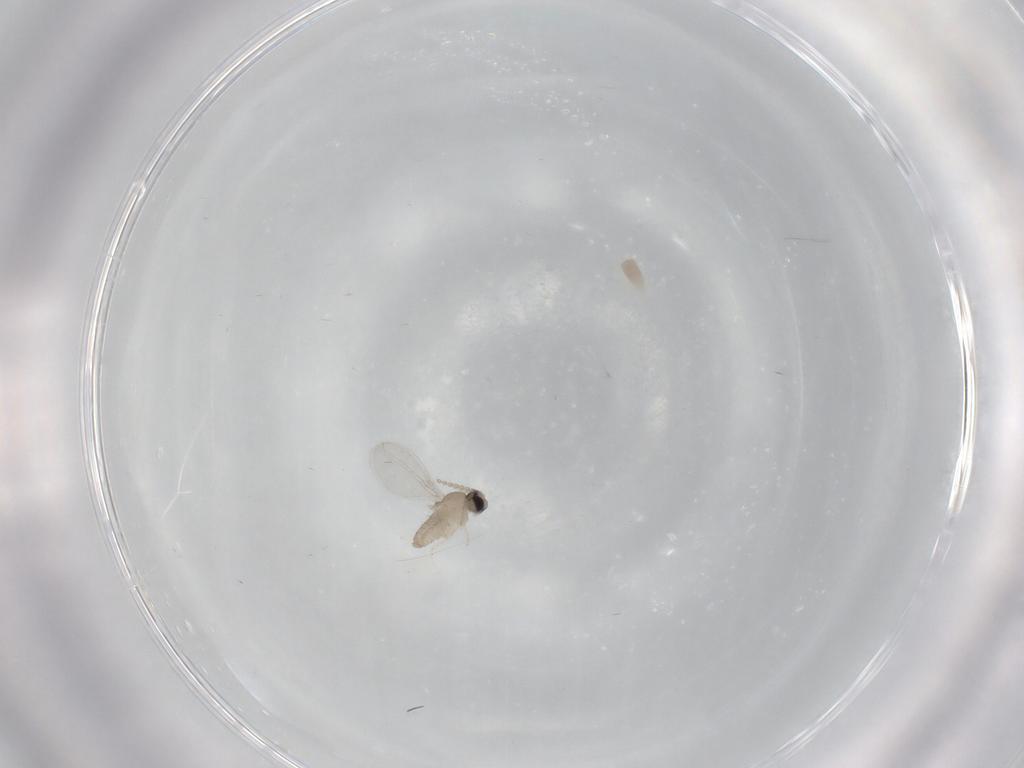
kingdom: Animalia
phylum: Arthropoda
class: Insecta
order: Diptera
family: Cecidomyiidae
